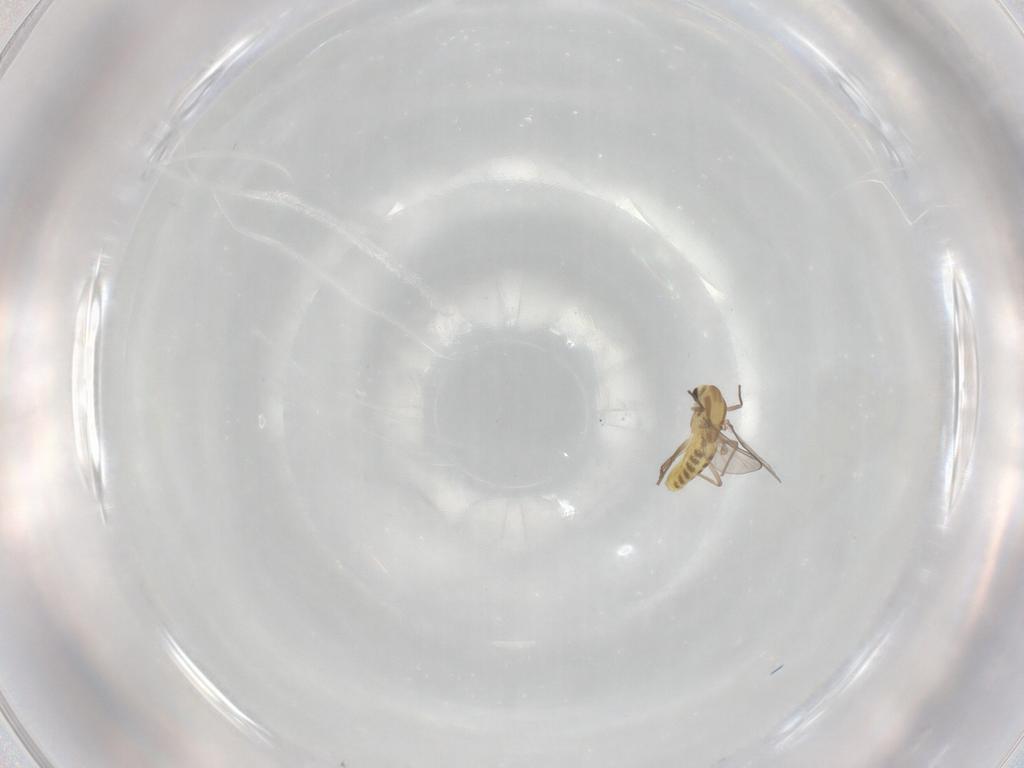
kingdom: Animalia
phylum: Arthropoda
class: Insecta
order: Diptera
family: Chironomidae
